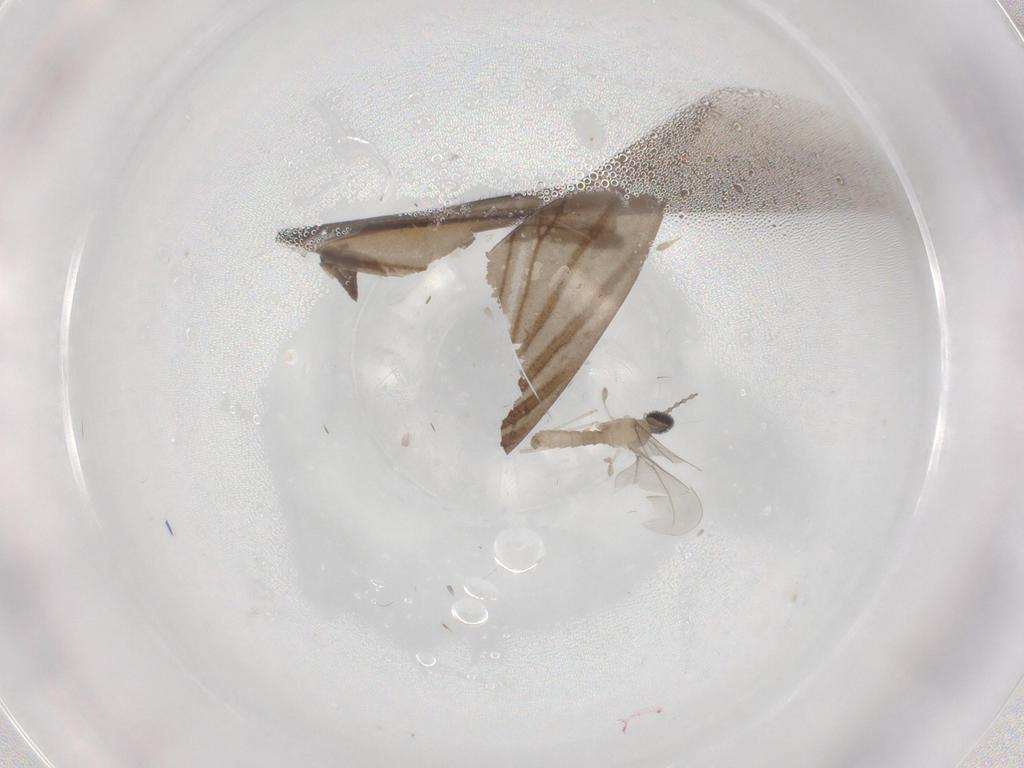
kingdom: Animalia
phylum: Arthropoda
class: Insecta
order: Diptera
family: Cecidomyiidae
